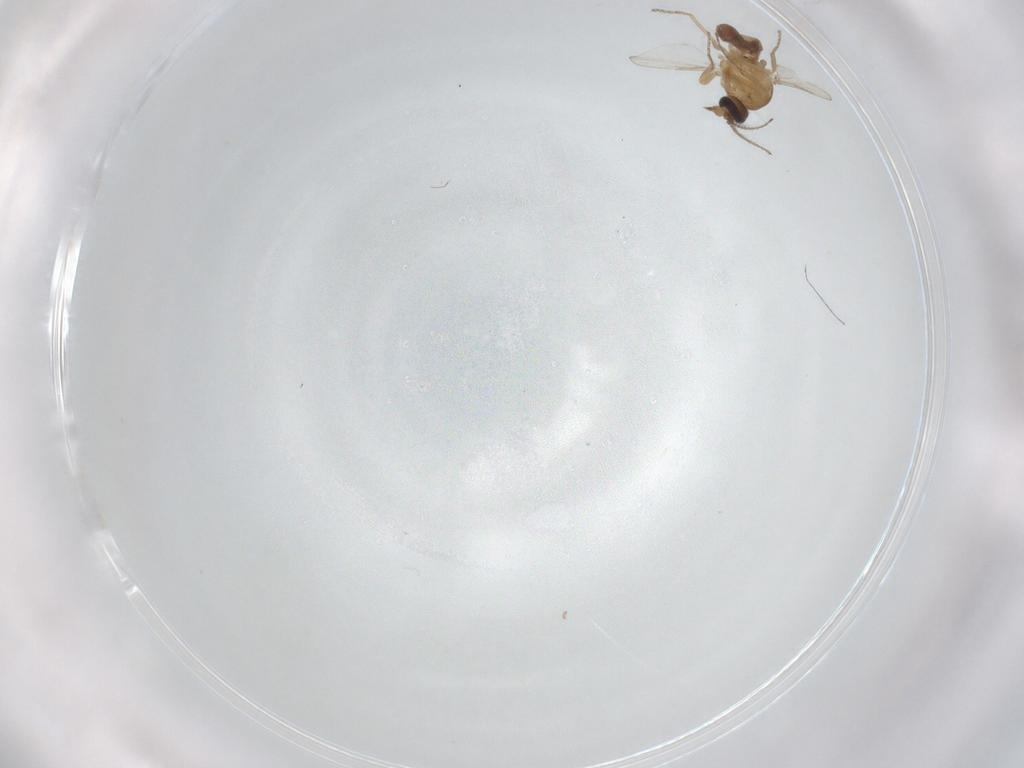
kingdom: Animalia
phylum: Arthropoda
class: Insecta
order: Diptera
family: Ceratopogonidae
